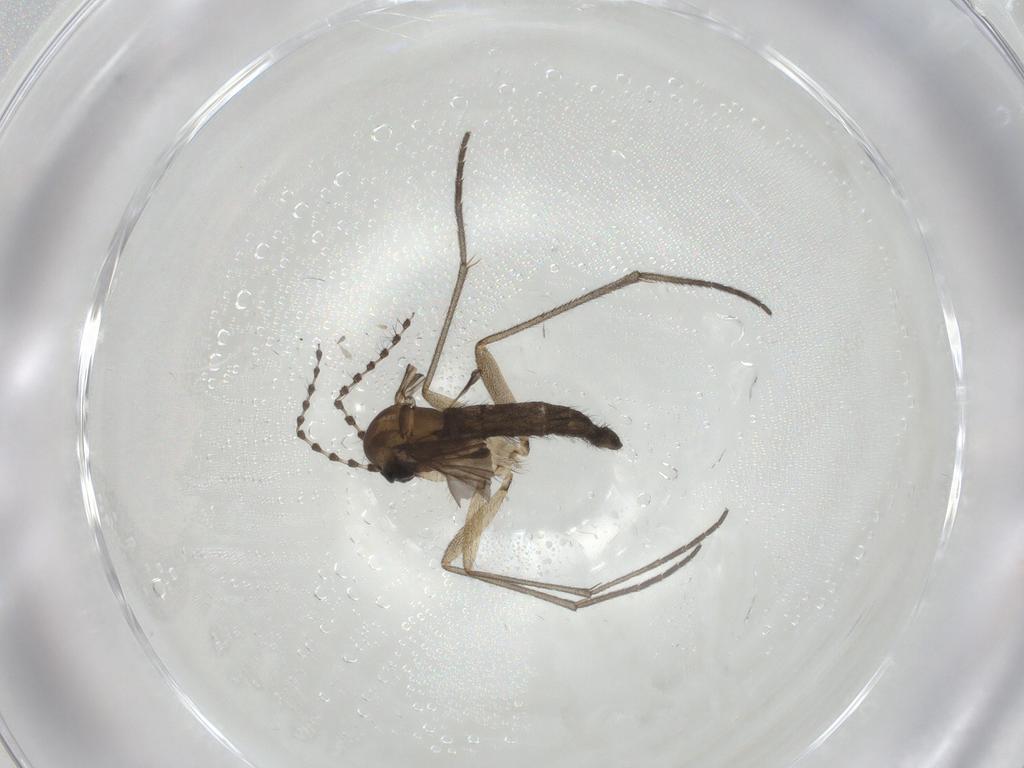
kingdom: Animalia
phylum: Arthropoda
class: Insecta
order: Diptera
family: Sciaridae
